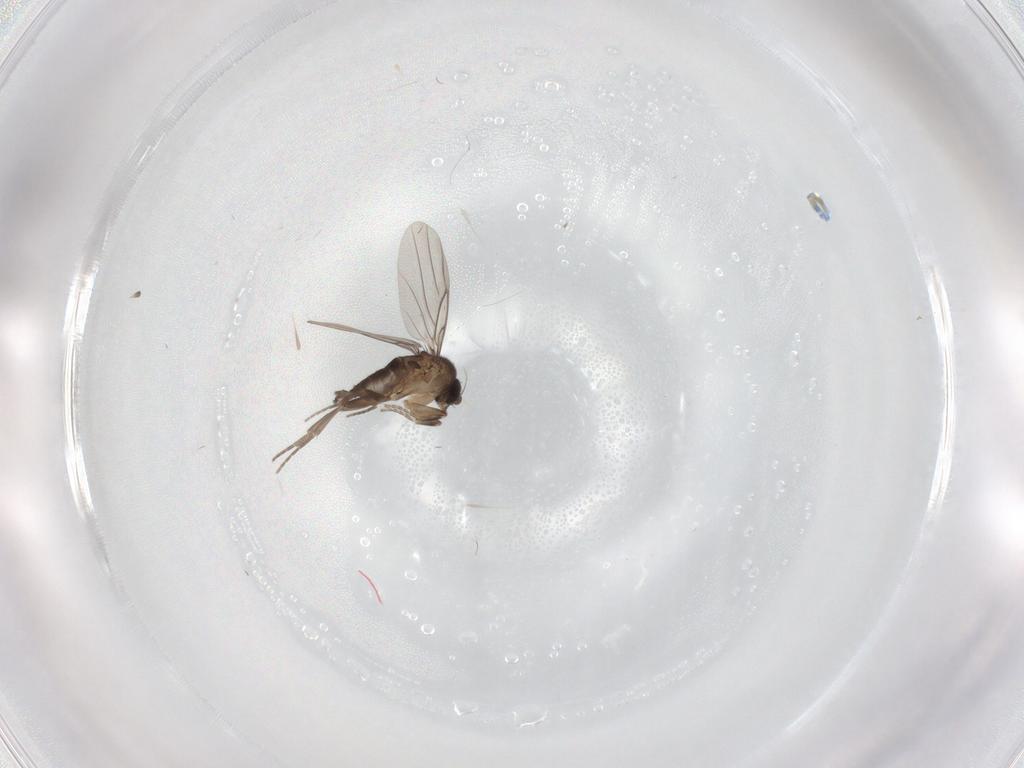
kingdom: Animalia
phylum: Arthropoda
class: Insecta
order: Diptera
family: Phoridae
